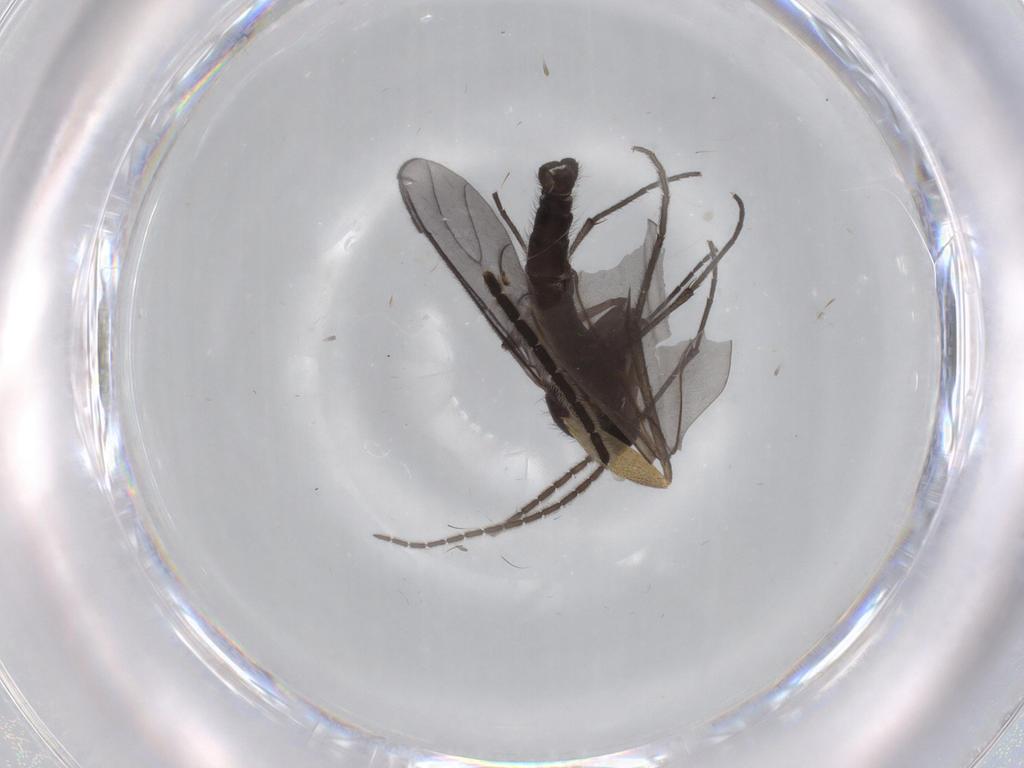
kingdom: Animalia
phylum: Arthropoda
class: Insecta
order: Diptera
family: Sciaridae
